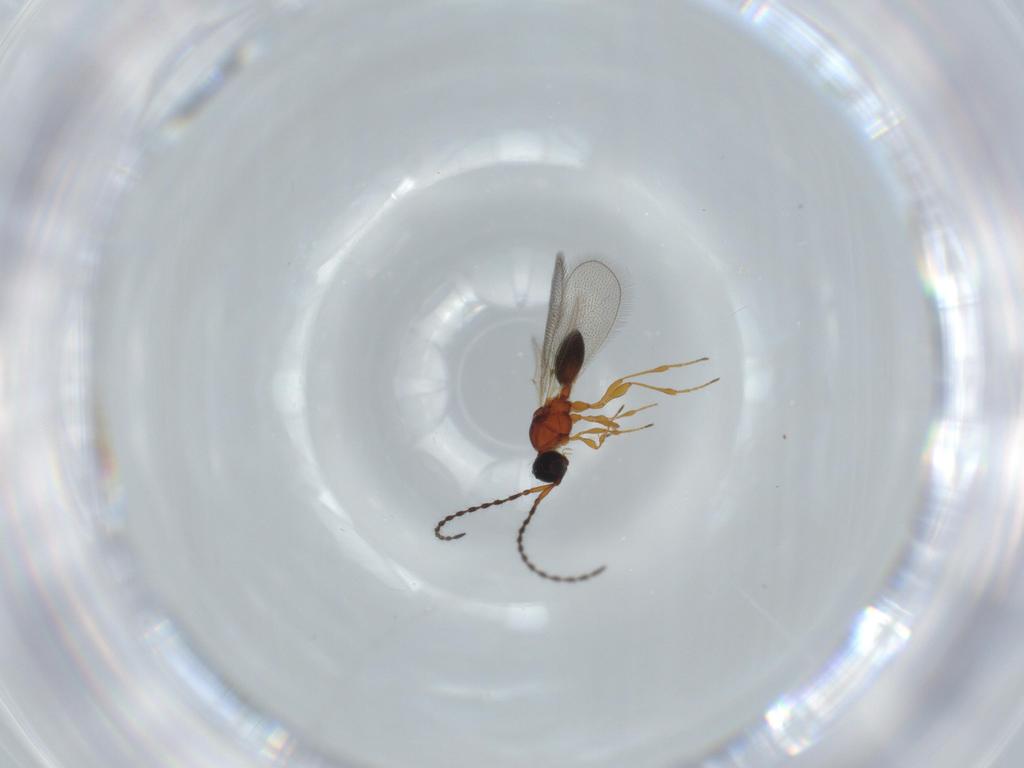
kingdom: Animalia
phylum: Arthropoda
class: Insecta
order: Hymenoptera
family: Diapriidae
